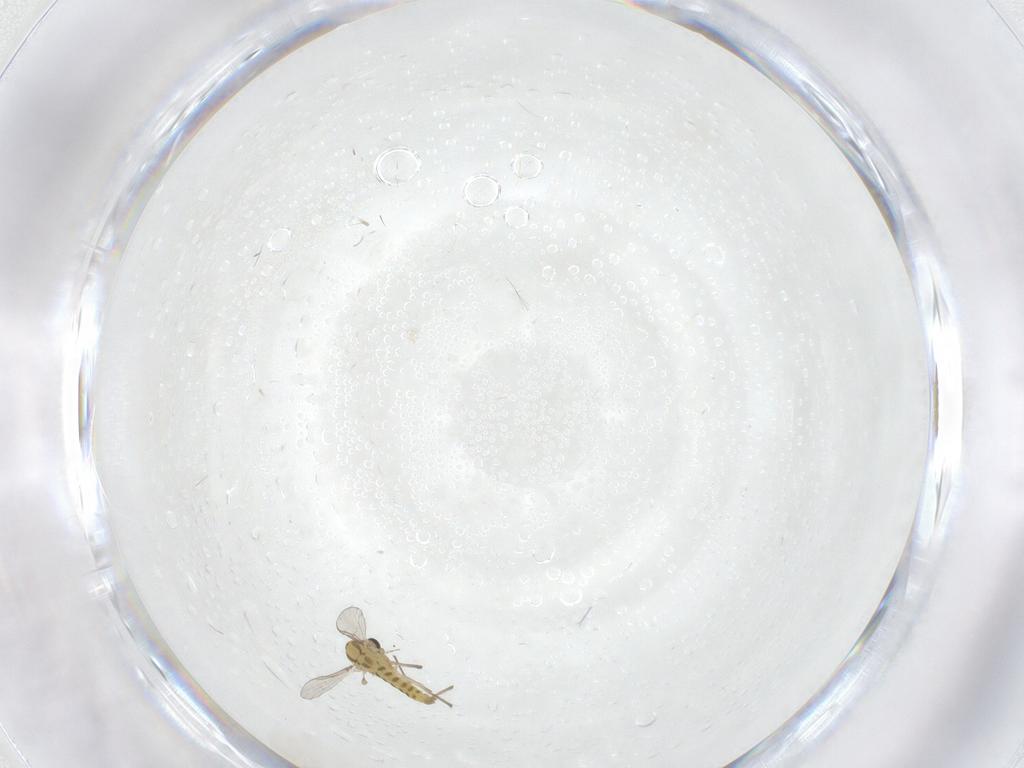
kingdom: Animalia
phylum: Arthropoda
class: Insecta
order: Diptera
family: Chironomidae
